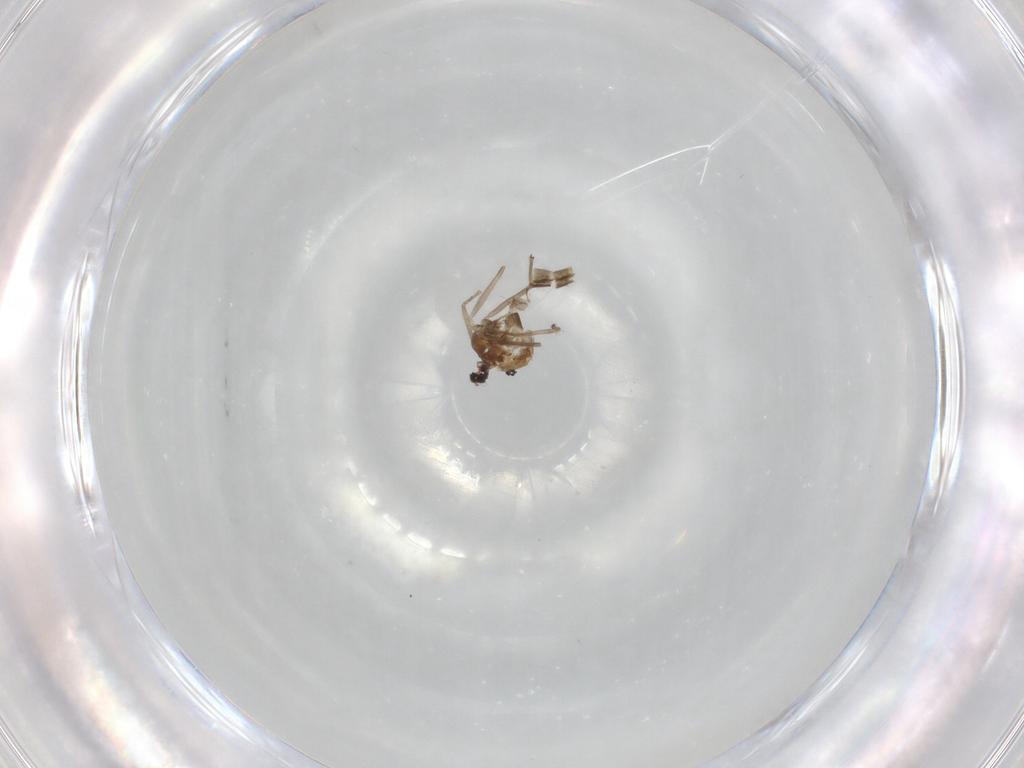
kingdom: Animalia
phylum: Arthropoda
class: Insecta
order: Diptera
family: Chironomidae
